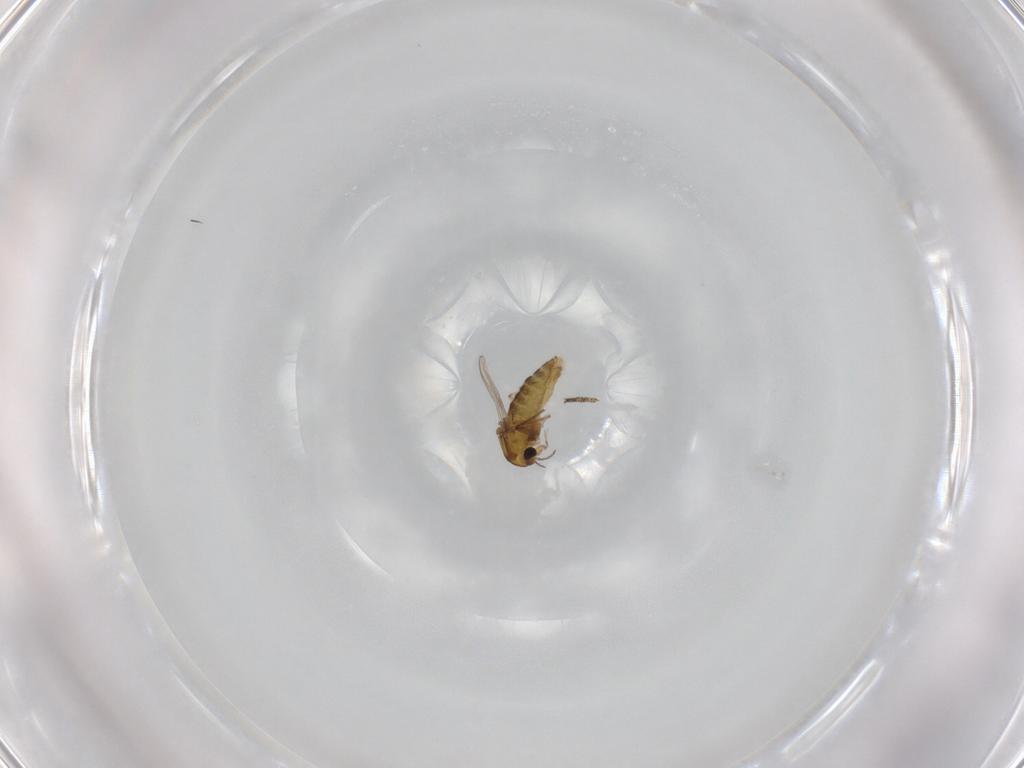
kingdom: Animalia
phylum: Arthropoda
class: Insecta
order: Diptera
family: Chironomidae
